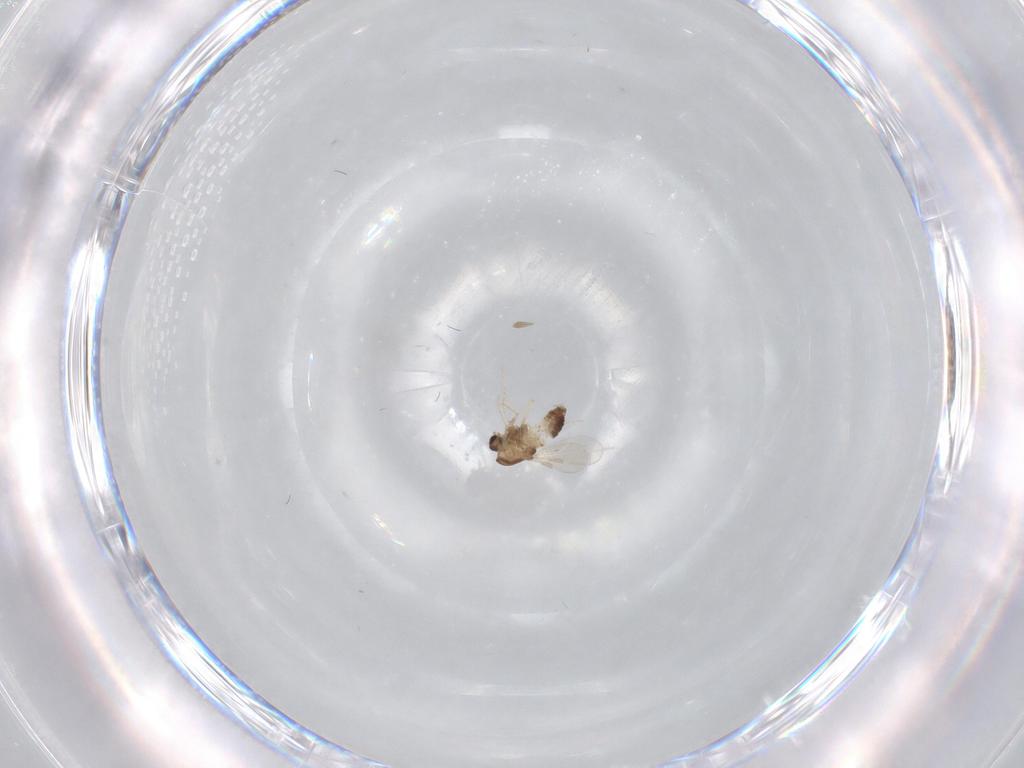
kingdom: Animalia
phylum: Arthropoda
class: Insecta
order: Diptera
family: Chironomidae
